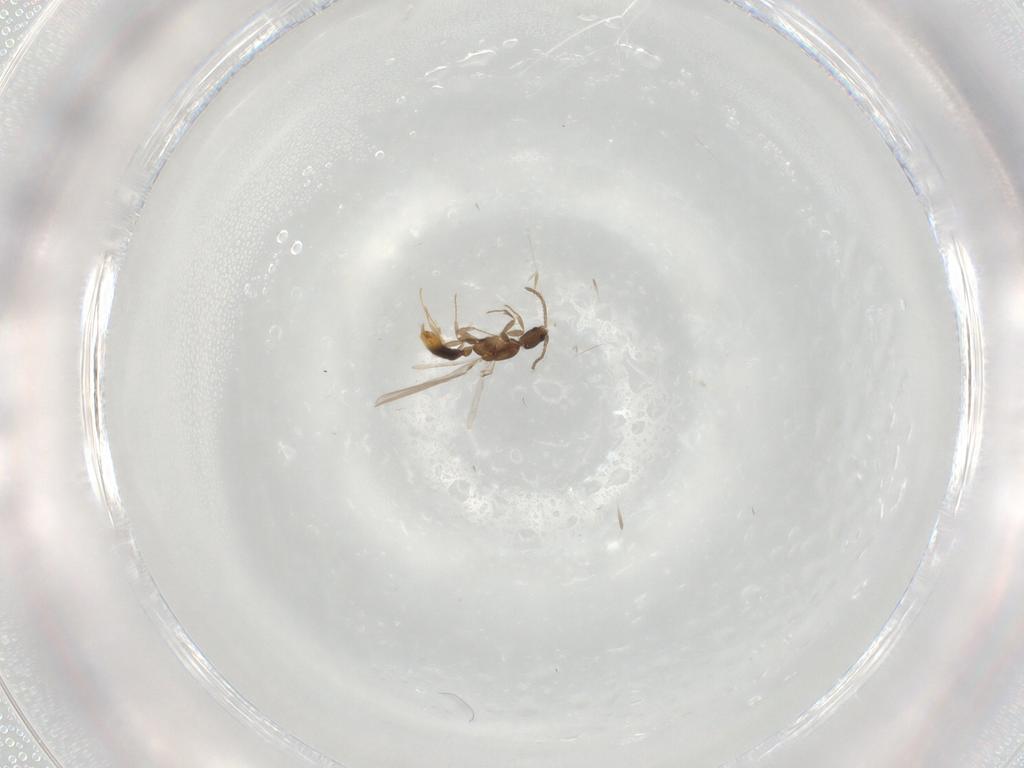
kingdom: Animalia
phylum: Arthropoda
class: Insecta
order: Hymenoptera
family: Formicidae
